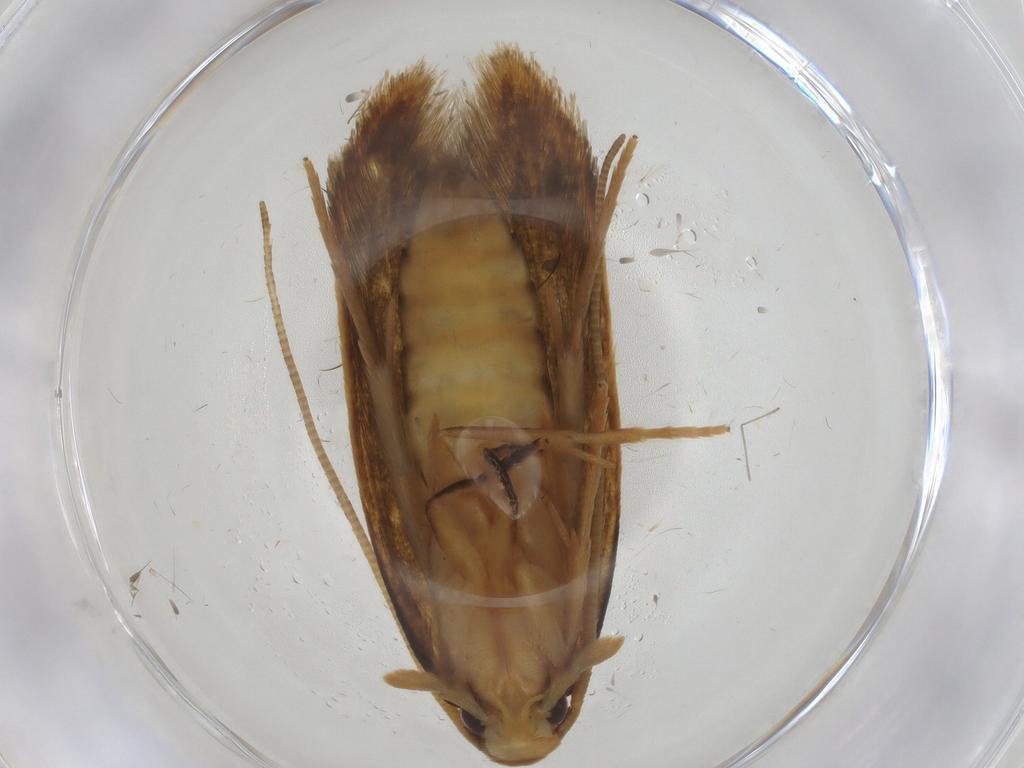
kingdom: Animalia
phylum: Arthropoda
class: Insecta
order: Lepidoptera
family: Tineidae
